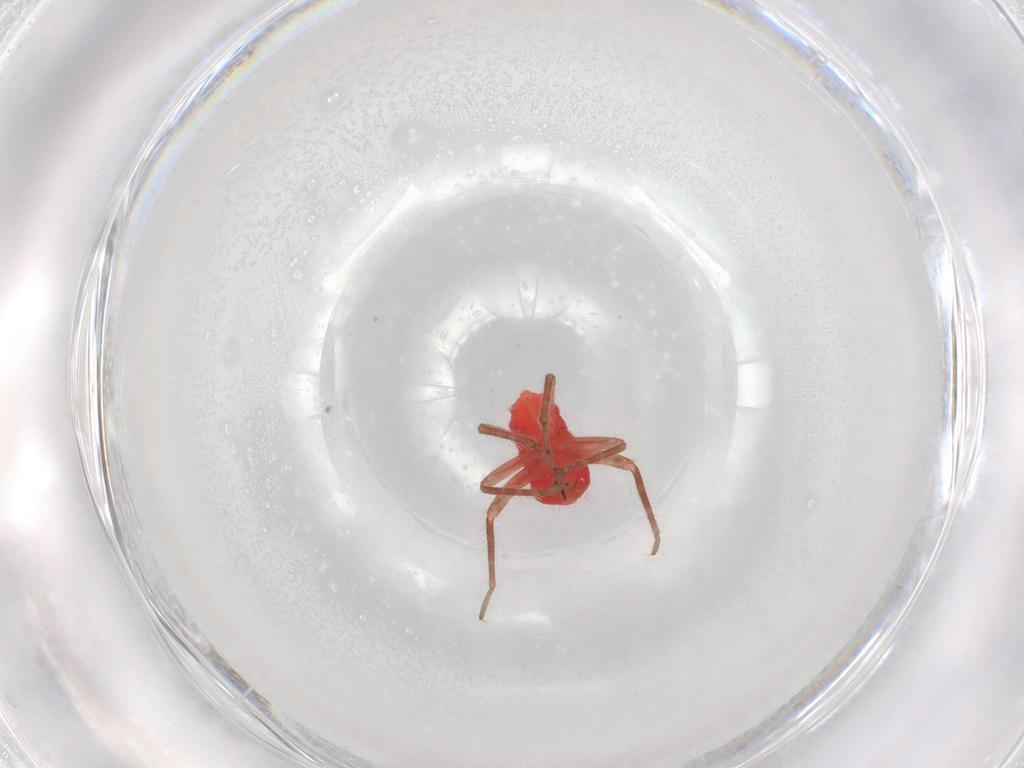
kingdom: Animalia
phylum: Arthropoda
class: Insecta
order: Hemiptera
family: Miridae
